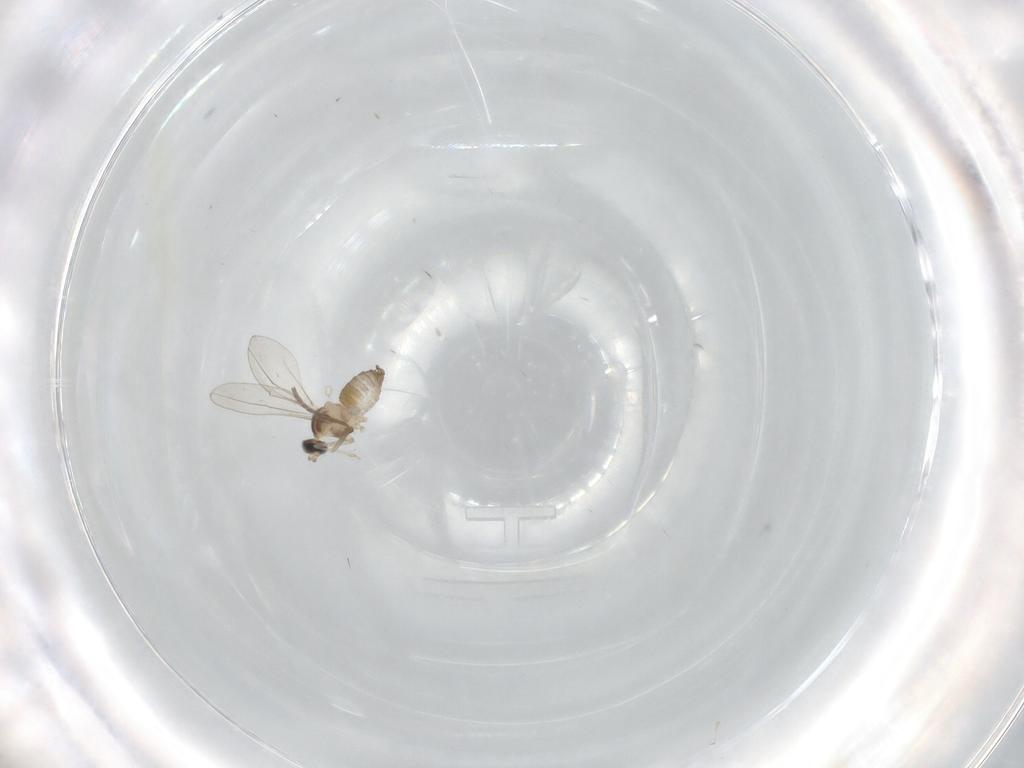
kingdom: Animalia
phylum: Arthropoda
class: Insecta
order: Diptera
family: Cecidomyiidae
